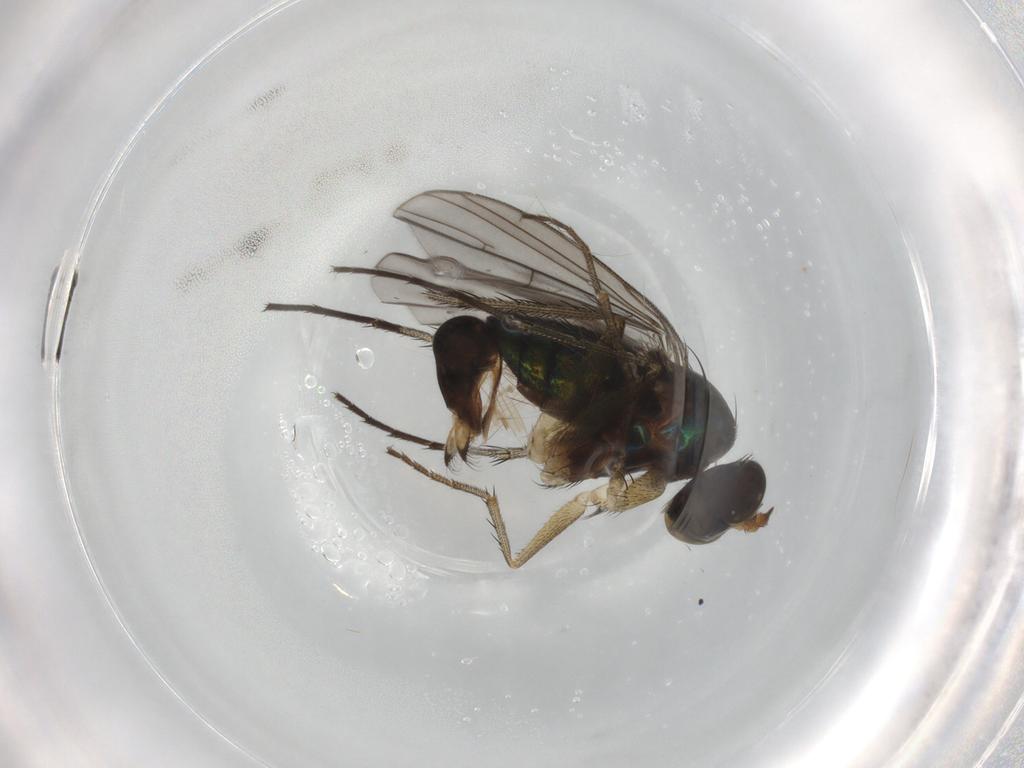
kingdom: Animalia
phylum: Arthropoda
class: Insecta
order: Diptera
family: Dolichopodidae
